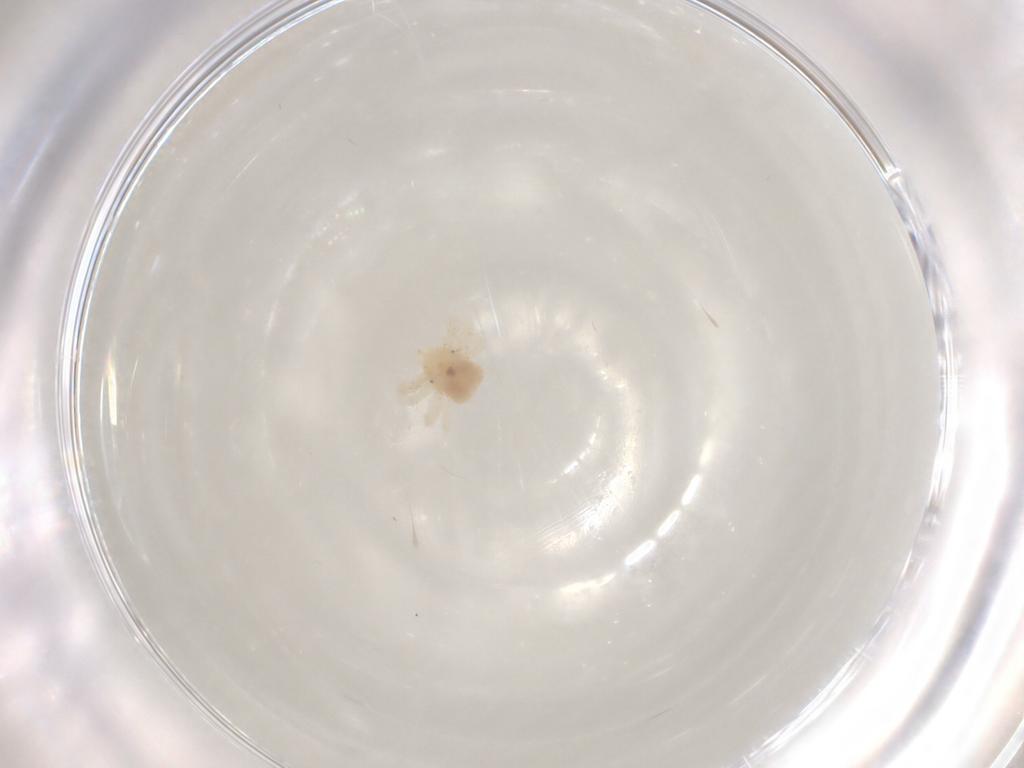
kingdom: Animalia
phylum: Arthropoda
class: Arachnida
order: Trombidiformes
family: Anystidae
